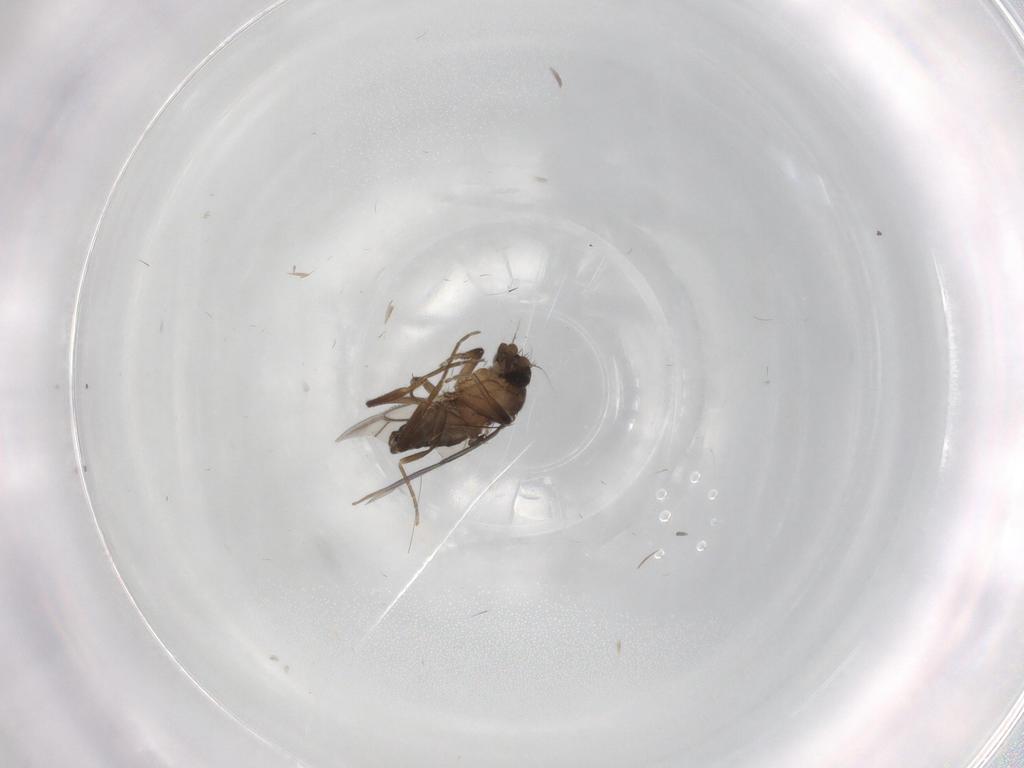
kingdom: Animalia
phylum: Arthropoda
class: Insecta
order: Diptera
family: Phoridae
